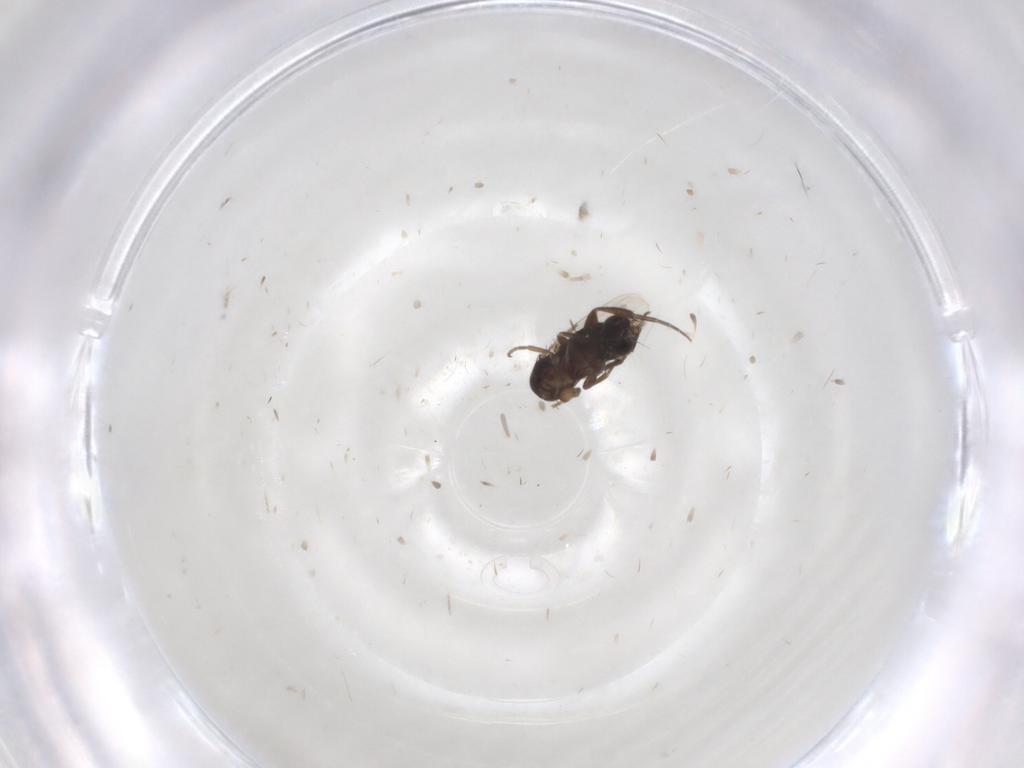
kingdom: Animalia
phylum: Arthropoda
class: Insecta
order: Diptera
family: Phoridae
